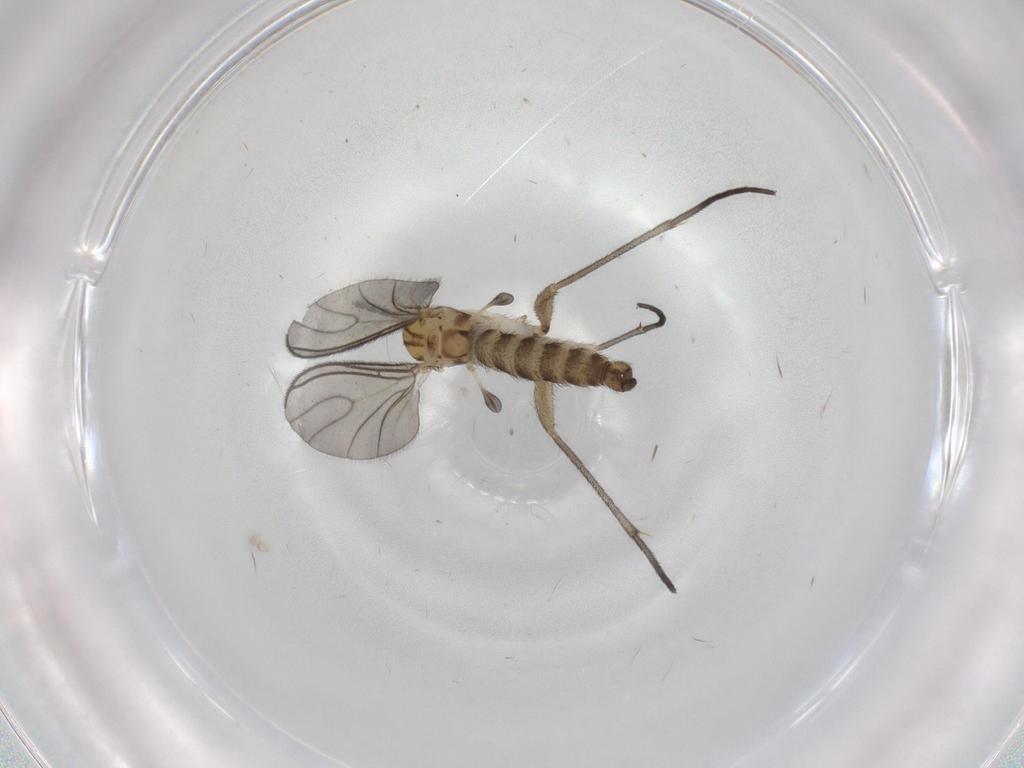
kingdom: Animalia
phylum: Arthropoda
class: Insecta
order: Diptera
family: Sciaridae
